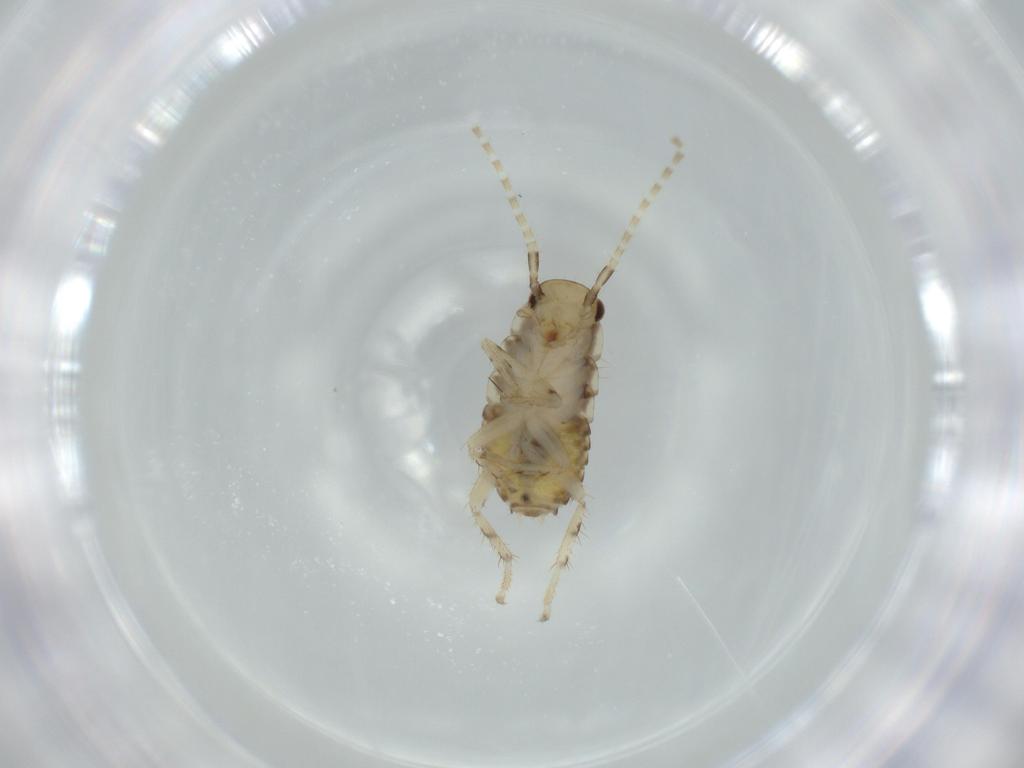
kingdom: Animalia
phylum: Arthropoda
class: Insecta
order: Blattodea
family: Ectobiidae
